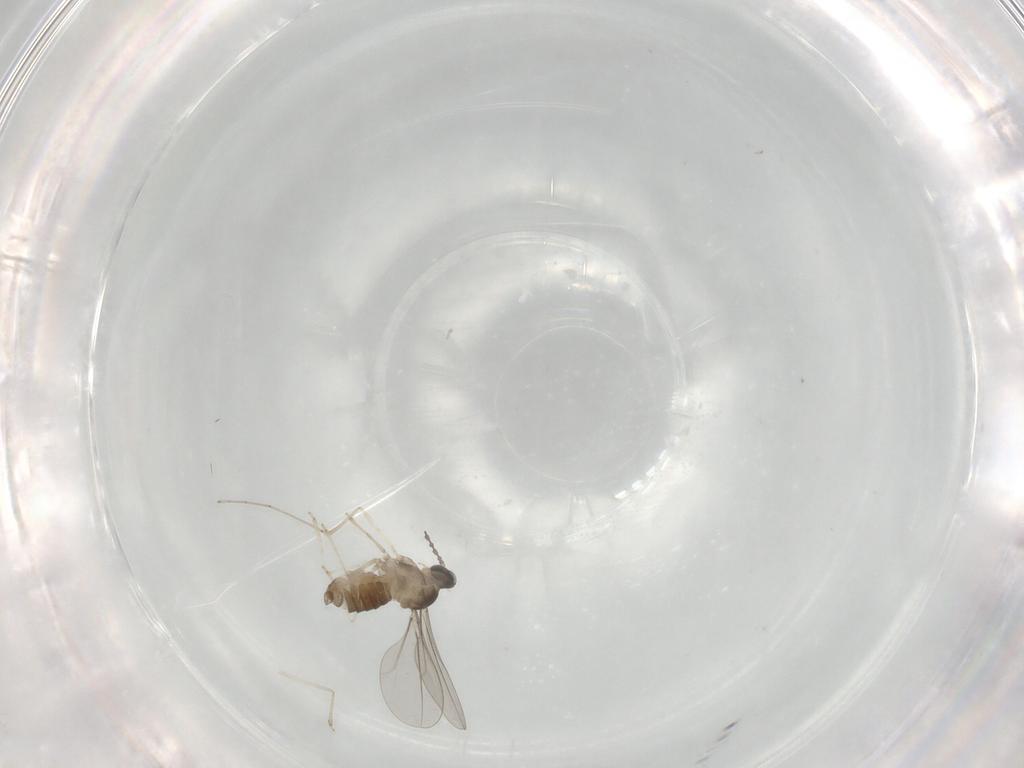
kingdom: Animalia
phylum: Arthropoda
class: Insecta
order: Diptera
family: Cecidomyiidae
